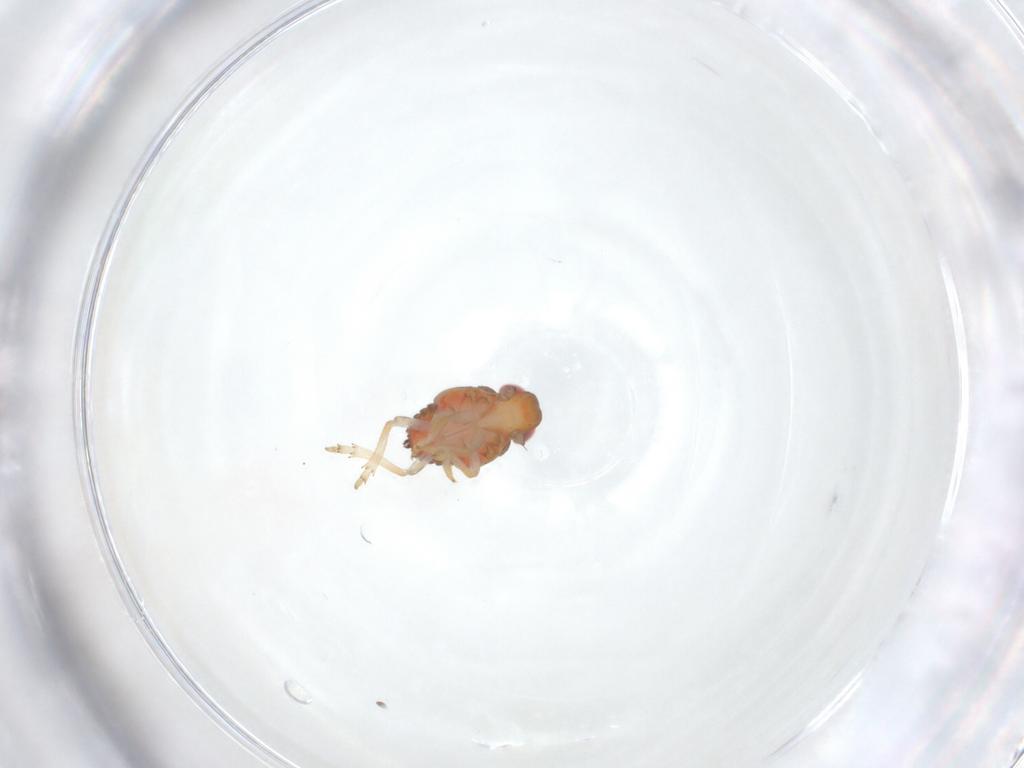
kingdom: Animalia
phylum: Arthropoda
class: Insecta
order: Hemiptera
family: Issidae
